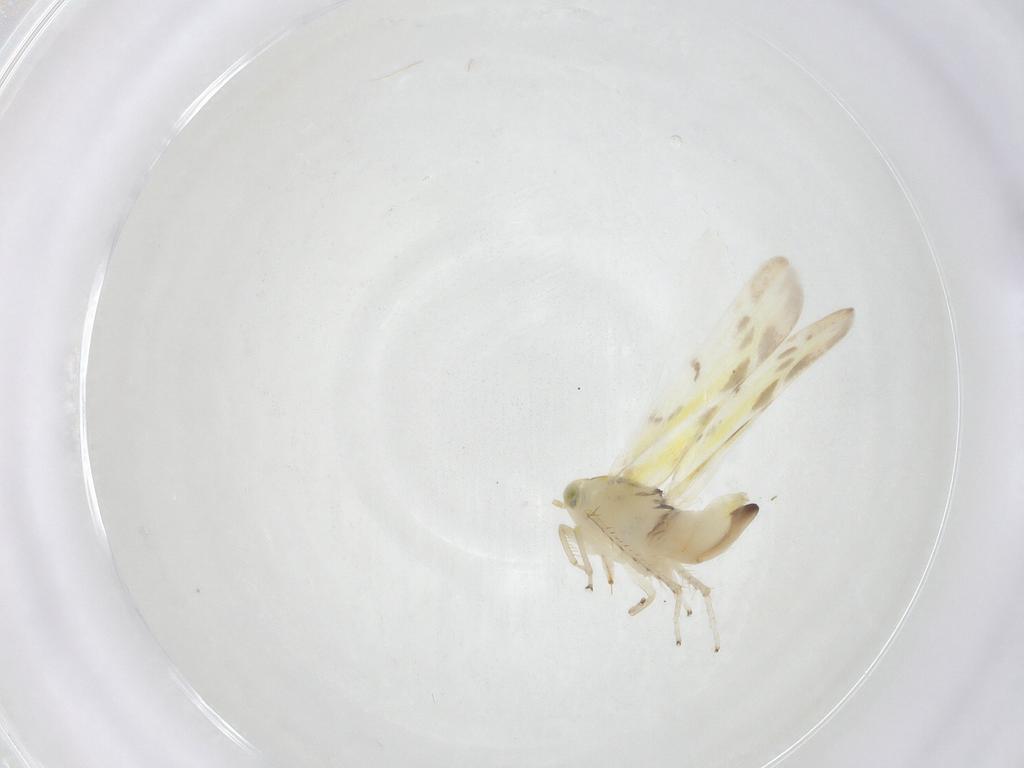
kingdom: Animalia
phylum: Arthropoda
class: Insecta
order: Hemiptera
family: Cicadellidae
